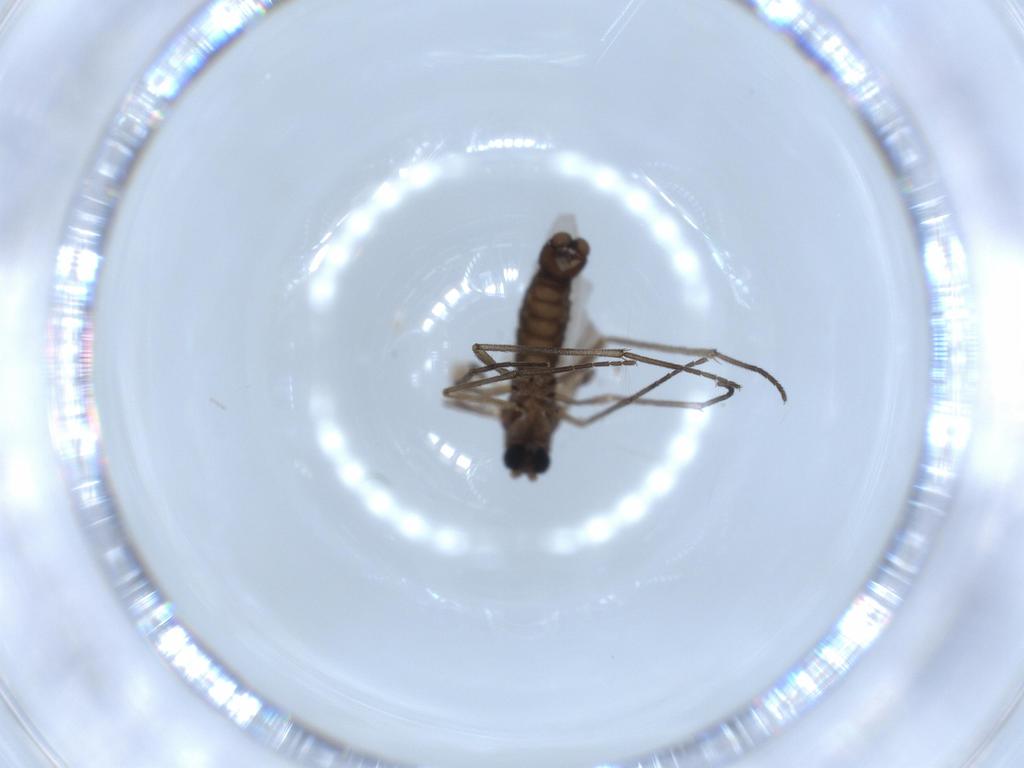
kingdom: Animalia
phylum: Arthropoda
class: Insecta
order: Diptera
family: Sciaridae
